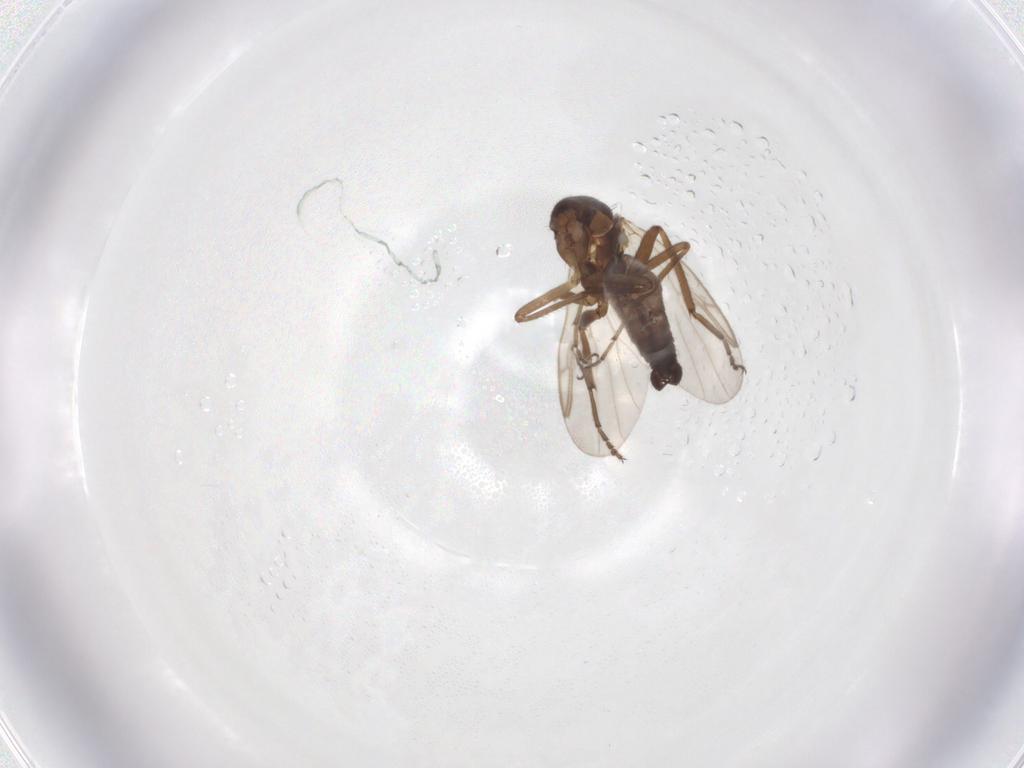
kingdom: Animalia
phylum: Arthropoda
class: Insecta
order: Diptera
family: Ceratopogonidae
